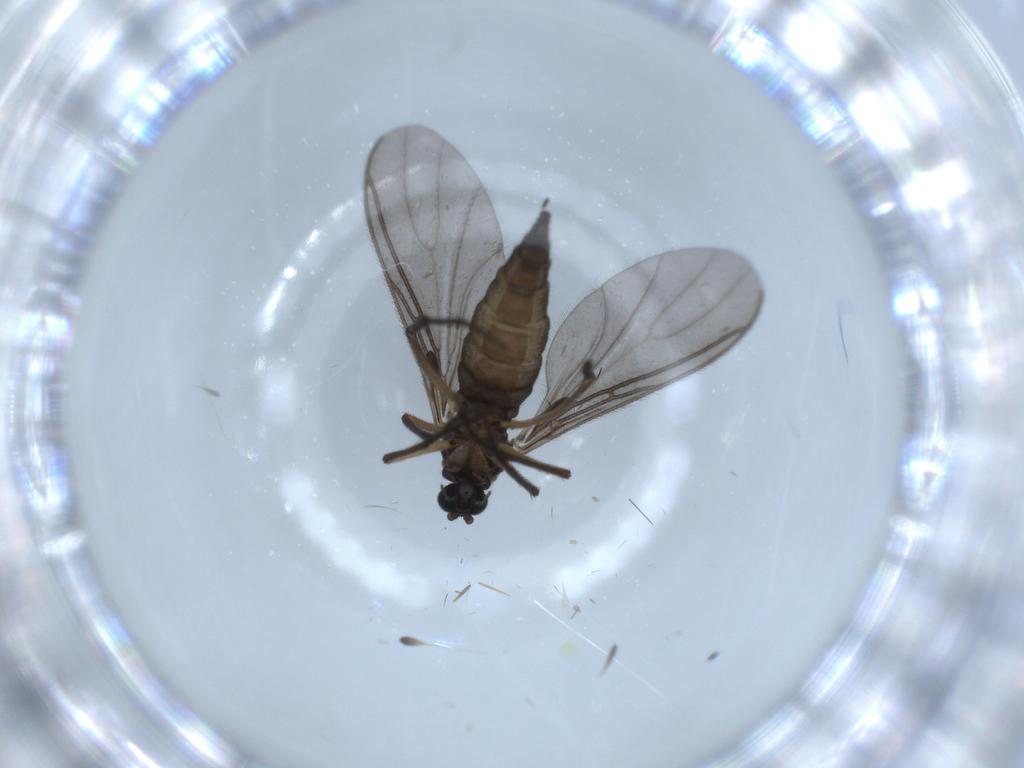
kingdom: Animalia
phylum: Arthropoda
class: Insecta
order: Diptera
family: Sciaridae
